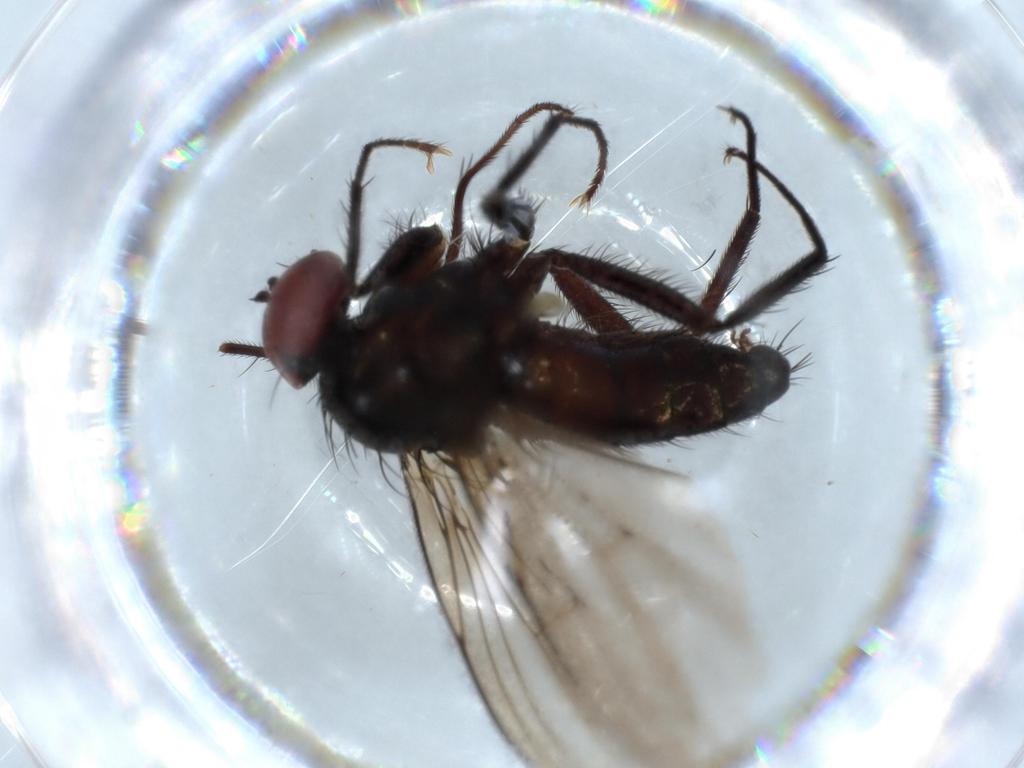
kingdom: Animalia
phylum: Arthropoda
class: Insecta
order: Diptera
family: Dolichopodidae
